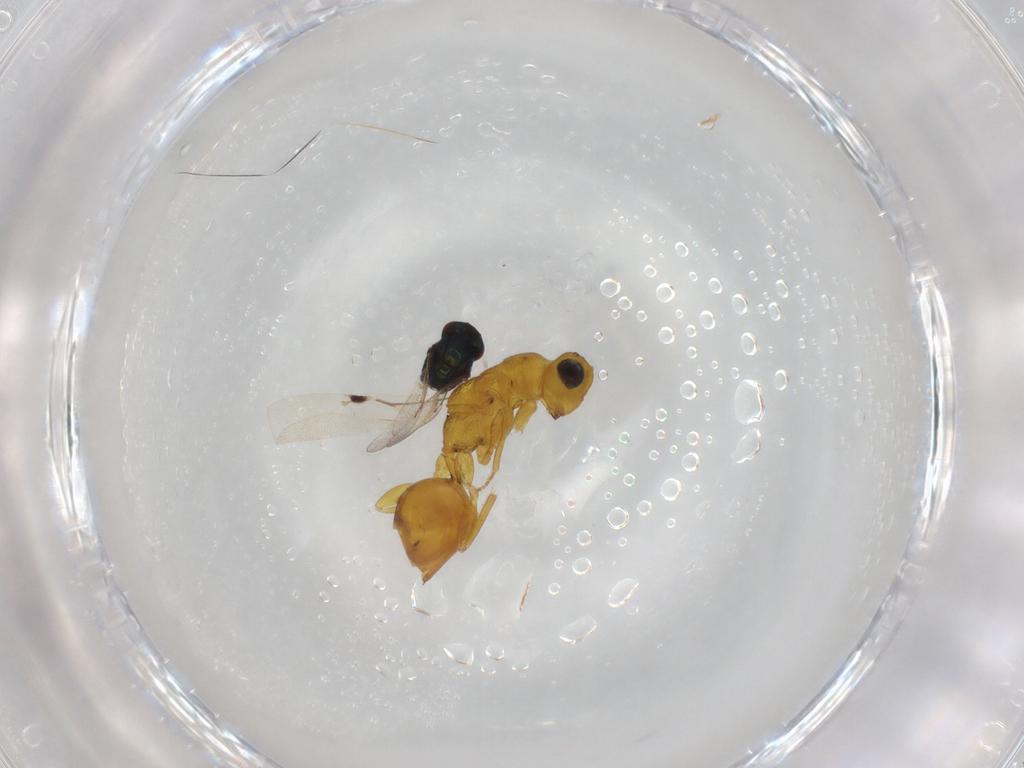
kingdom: Animalia
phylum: Arthropoda
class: Insecta
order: Hymenoptera
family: Eurytomidae
